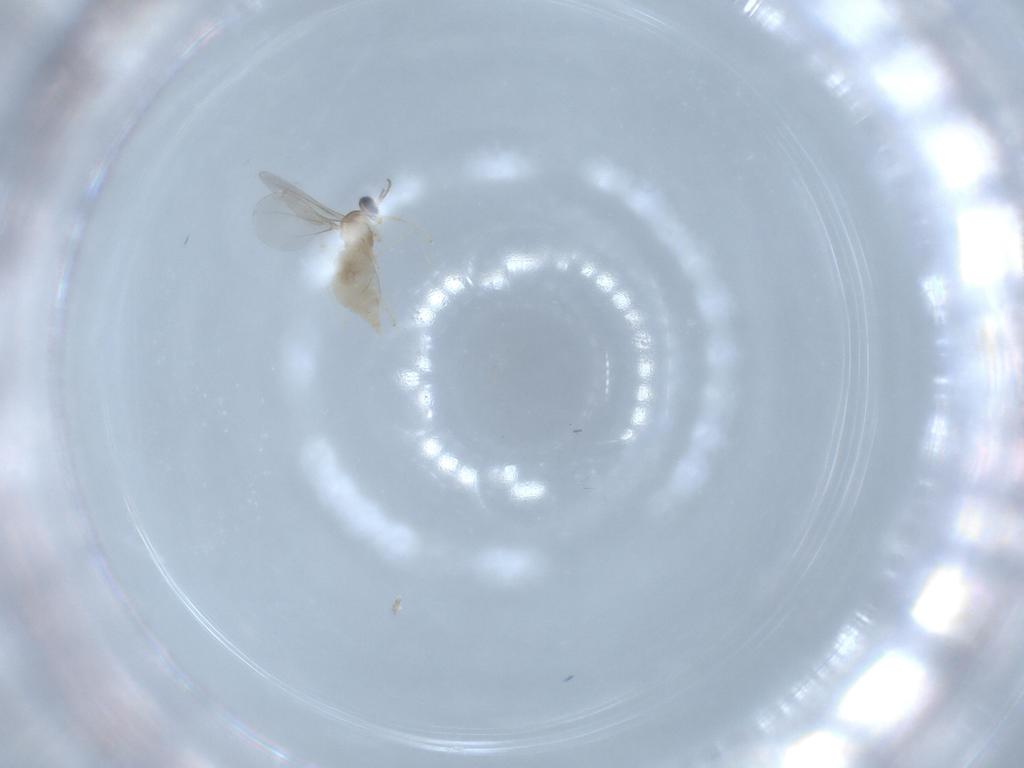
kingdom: Animalia
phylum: Arthropoda
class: Insecta
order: Diptera
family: Cecidomyiidae
